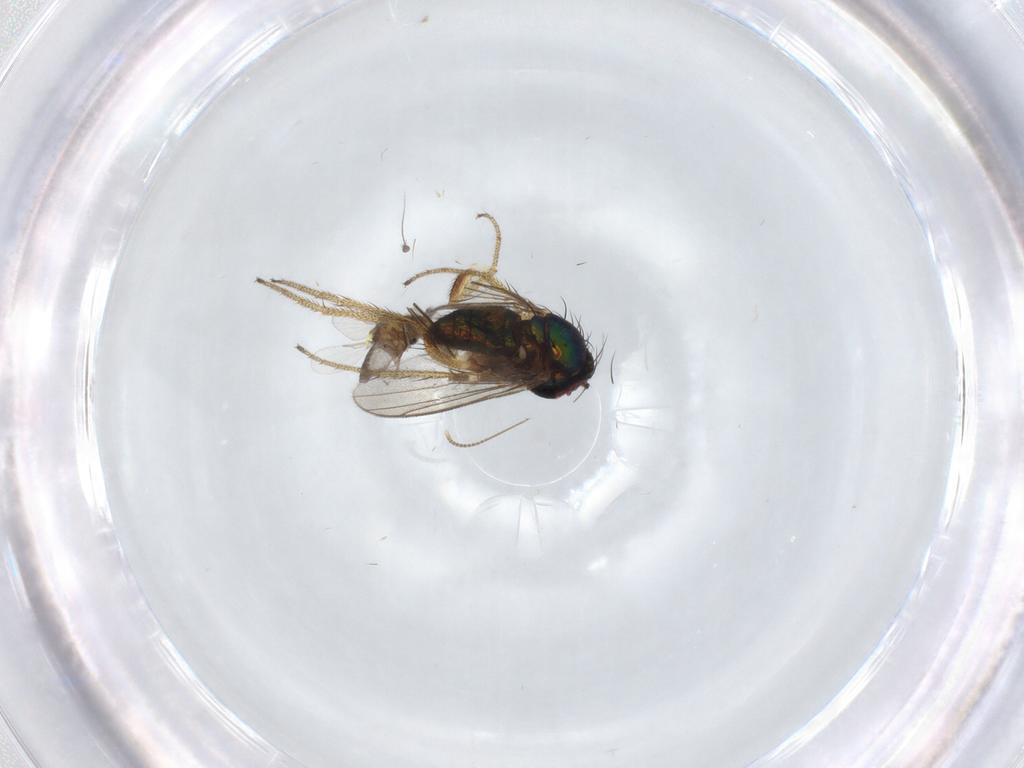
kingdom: Animalia
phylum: Arthropoda
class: Insecta
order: Diptera
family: Ceratopogonidae
